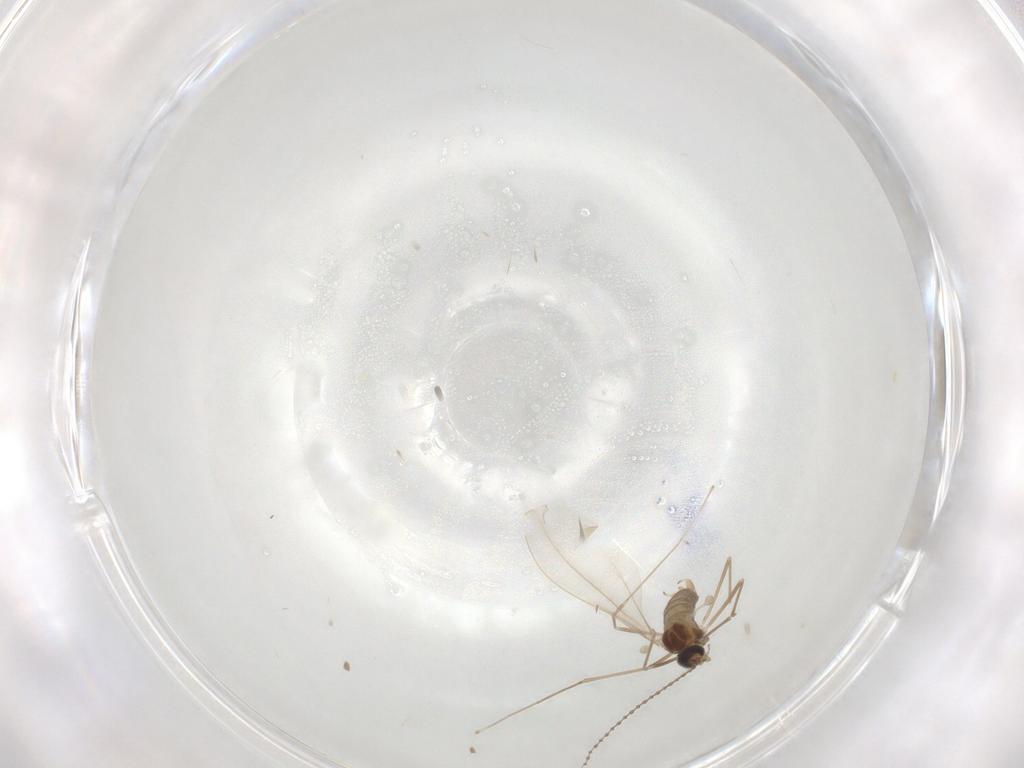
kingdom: Animalia
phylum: Arthropoda
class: Insecta
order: Diptera
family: Cecidomyiidae
